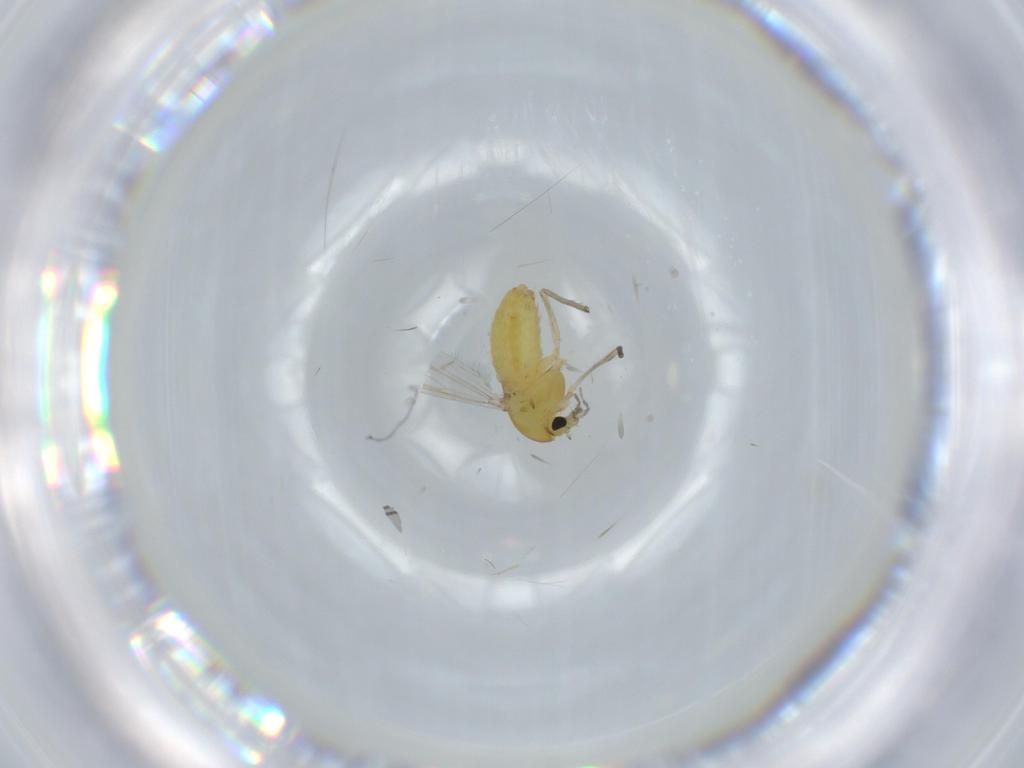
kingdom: Animalia
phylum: Arthropoda
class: Insecta
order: Diptera
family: Chironomidae
